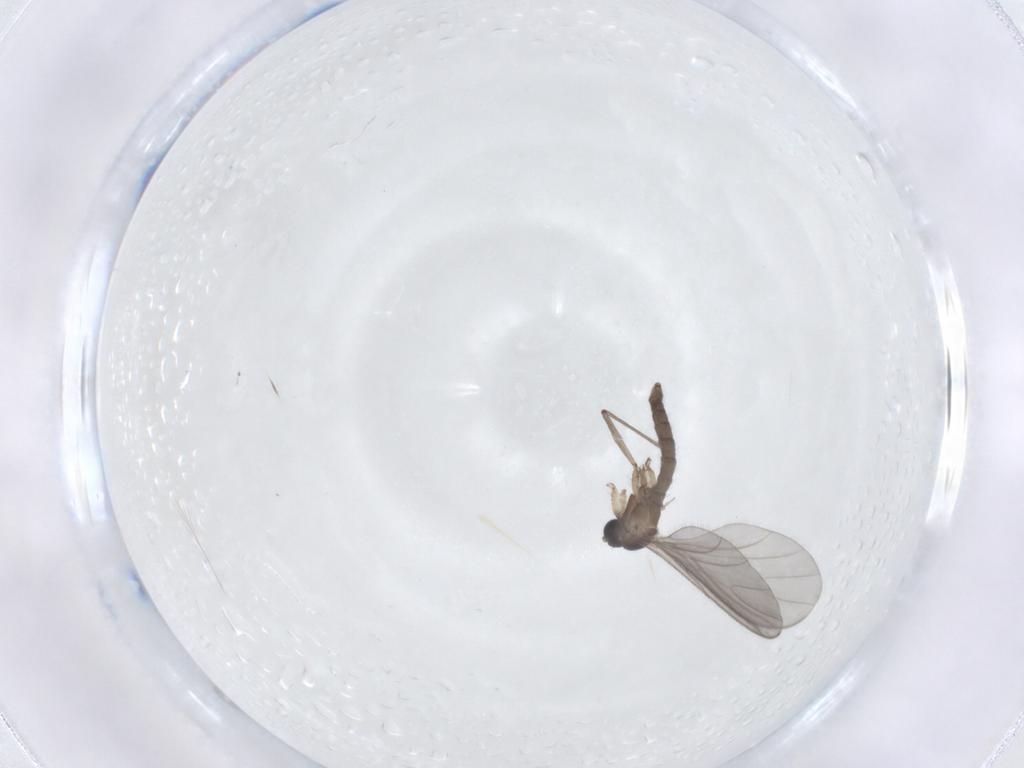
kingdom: Animalia
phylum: Arthropoda
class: Insecta
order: Diptera
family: Sciaridae
